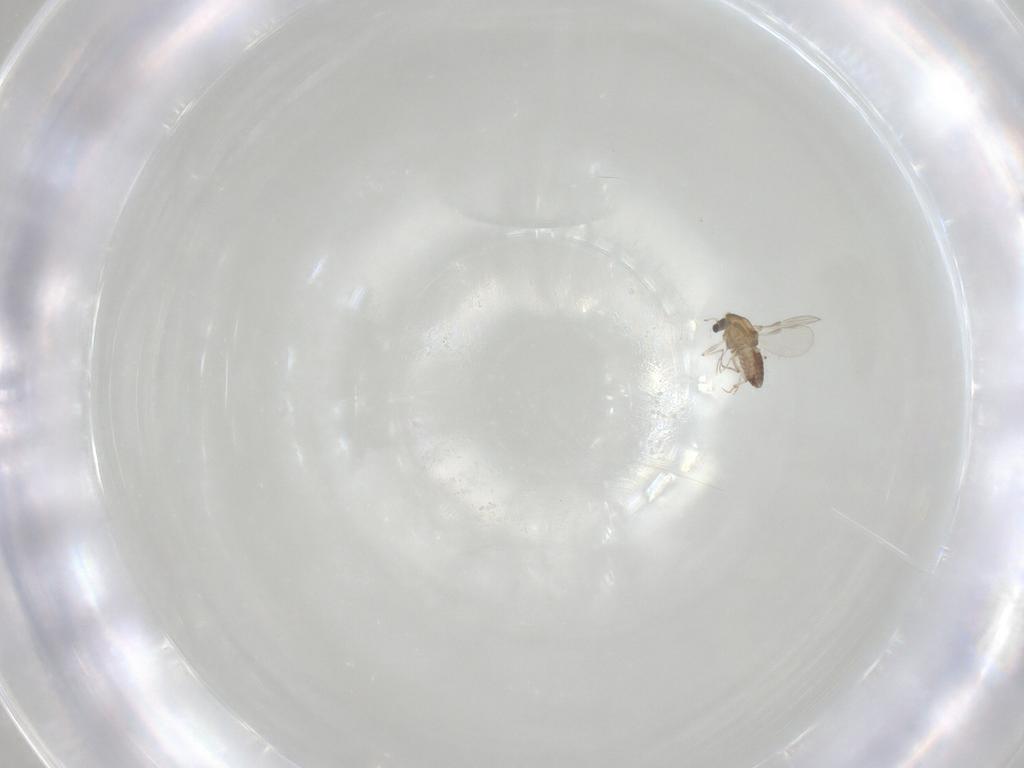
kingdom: Animalia
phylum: Arthropoda
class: Insecta
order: Diptera
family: Chironomidae
